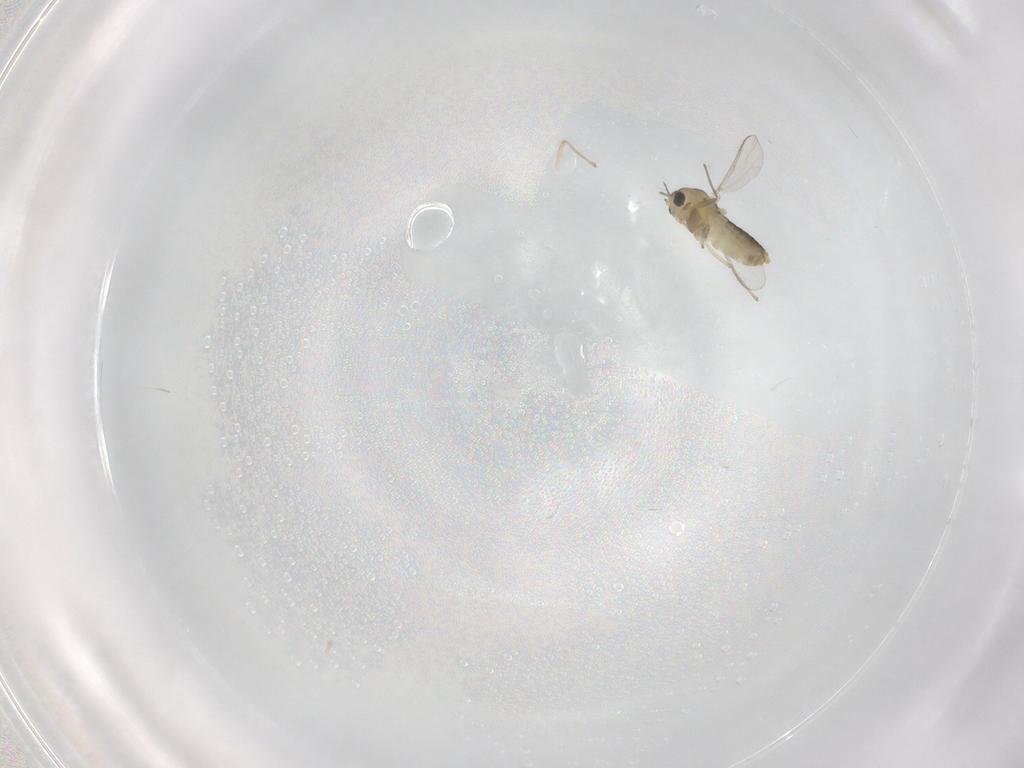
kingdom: Animalia
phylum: Arthropoda
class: Insecta
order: Diptera
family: Chironomidae
